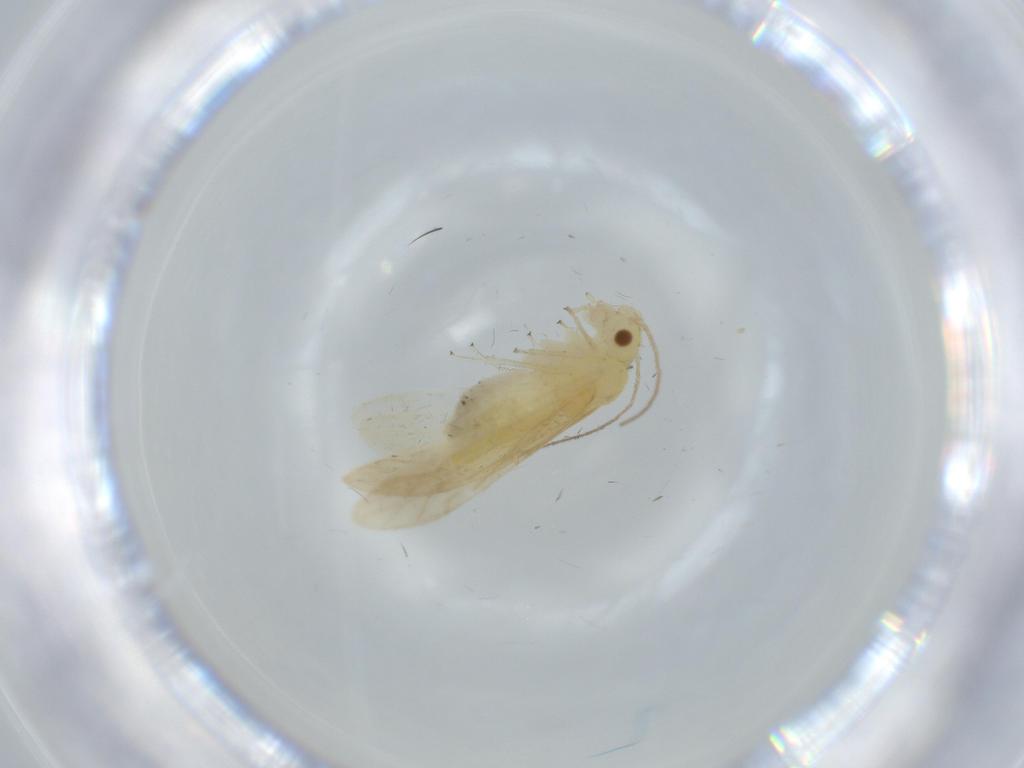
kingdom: Animalia
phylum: Arthropoda
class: Insecta
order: Psocodea
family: Caeciliusidae
